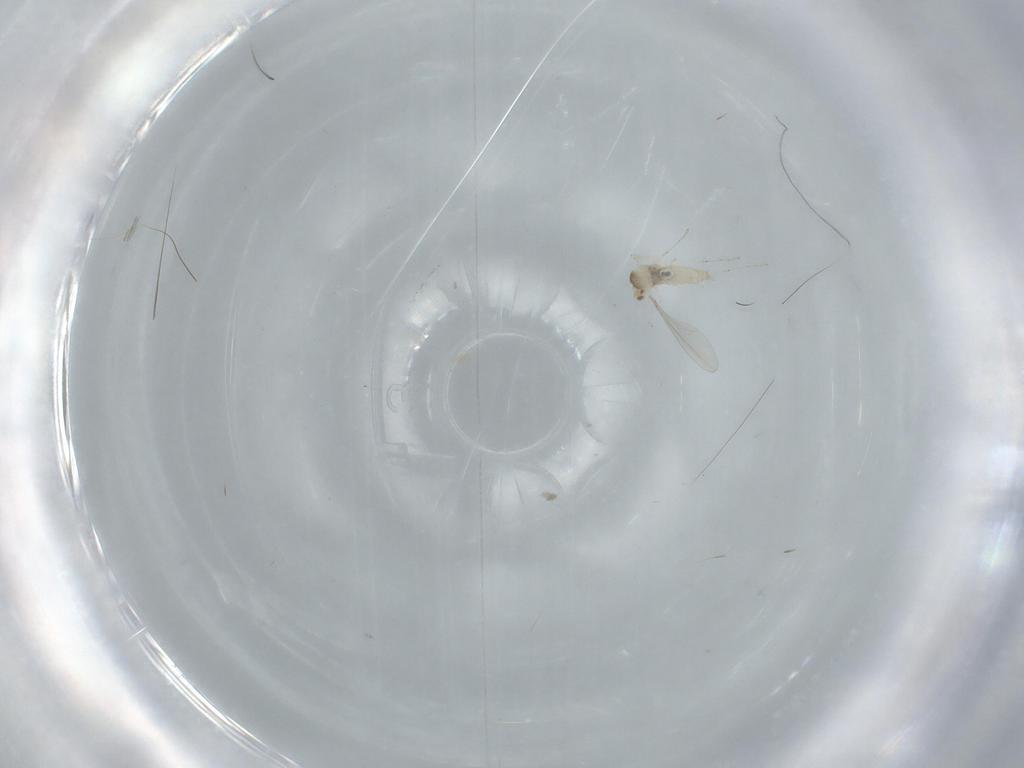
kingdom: Animalia
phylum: Arthropoda
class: Insecta
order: Diptera
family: Cecidomyiidae
